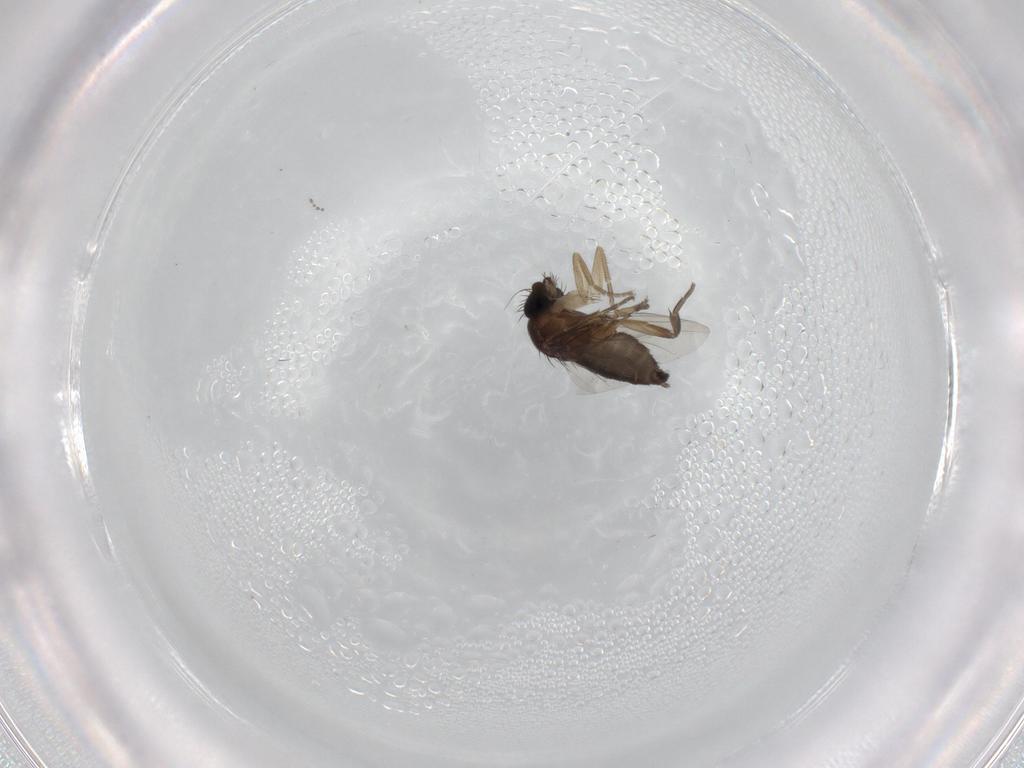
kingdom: Animalia
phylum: Arthropoda
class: Insecta
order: Diptera
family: Phoridae
